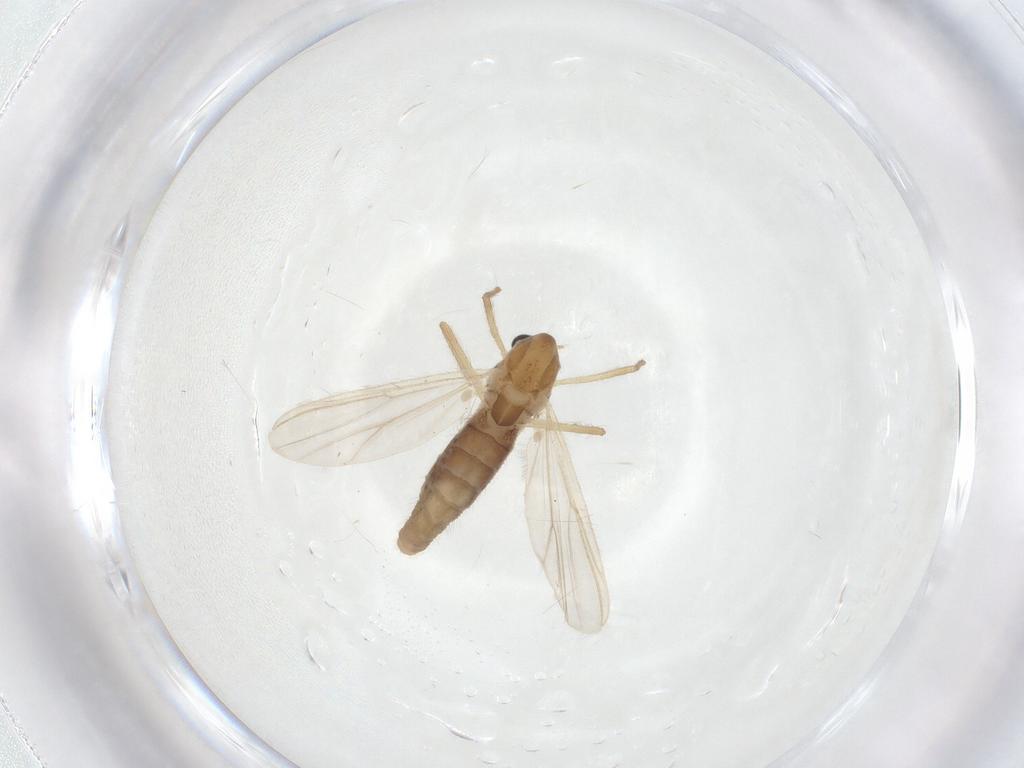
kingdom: Animalia
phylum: Arthropoda
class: Insecta
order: Diptera
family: Chironomidae
